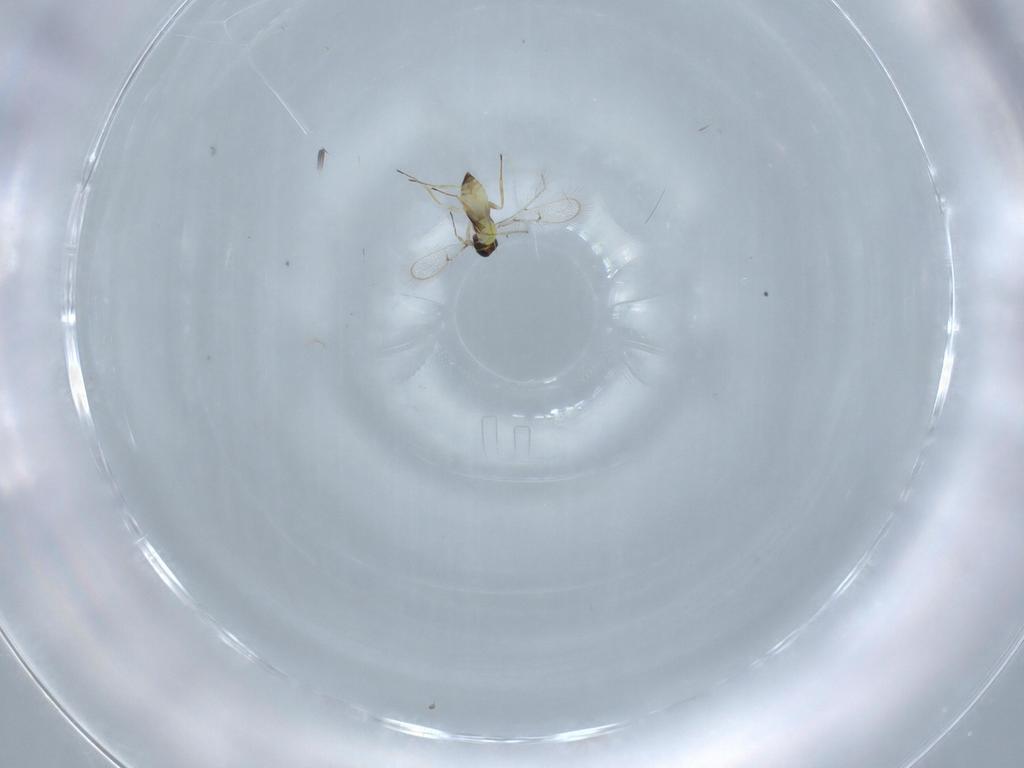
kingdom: Animalia
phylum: Arthropoda
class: Insecta
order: Hymenoptera
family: Trichogrammatidae
